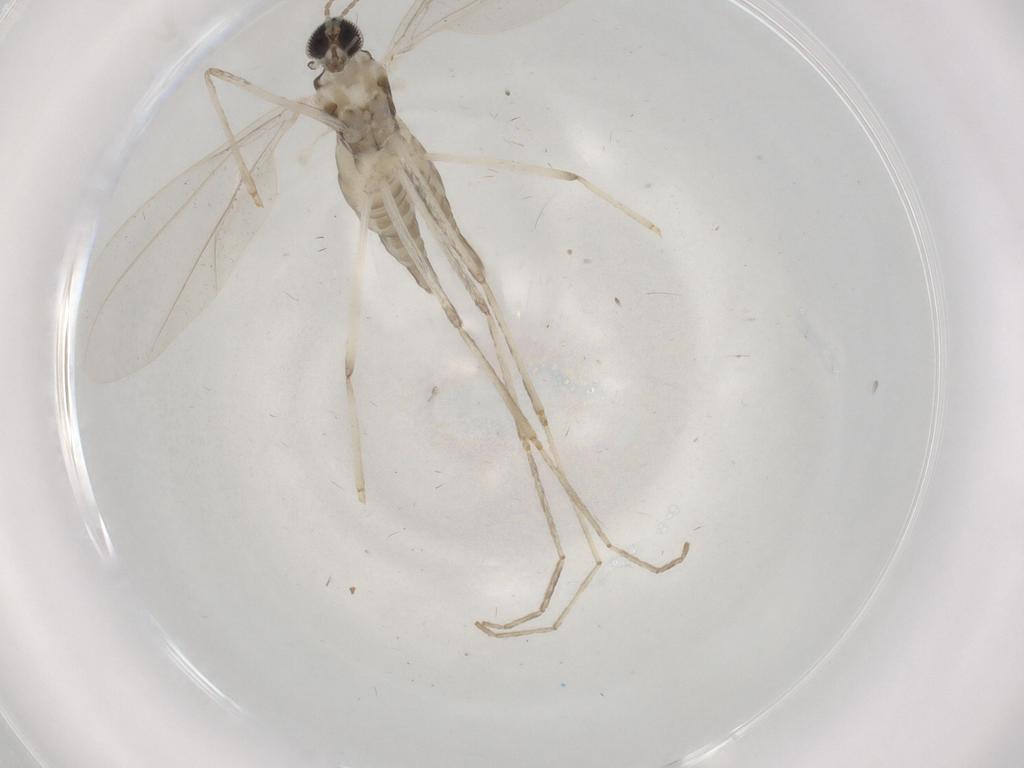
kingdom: Animalia
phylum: Arthropoda
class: Insecta
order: Diptera
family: Cecidomyiidae
